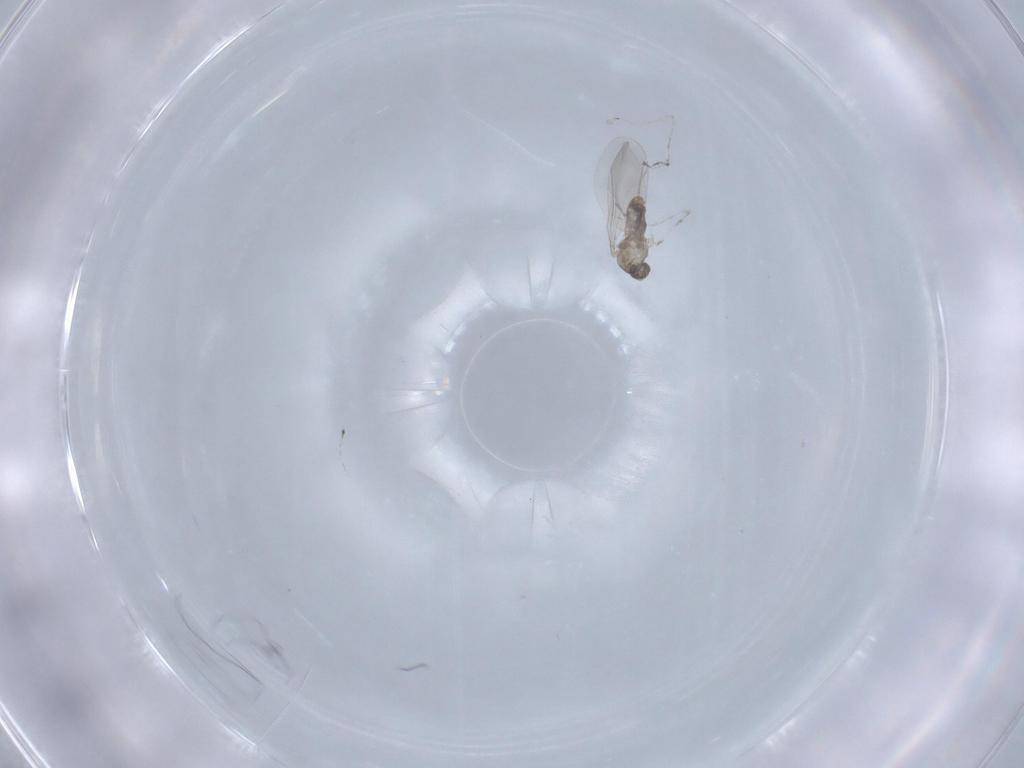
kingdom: Animalia
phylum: Arthropoda
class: Insecta
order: Diptera
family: Cecidomyiidae
